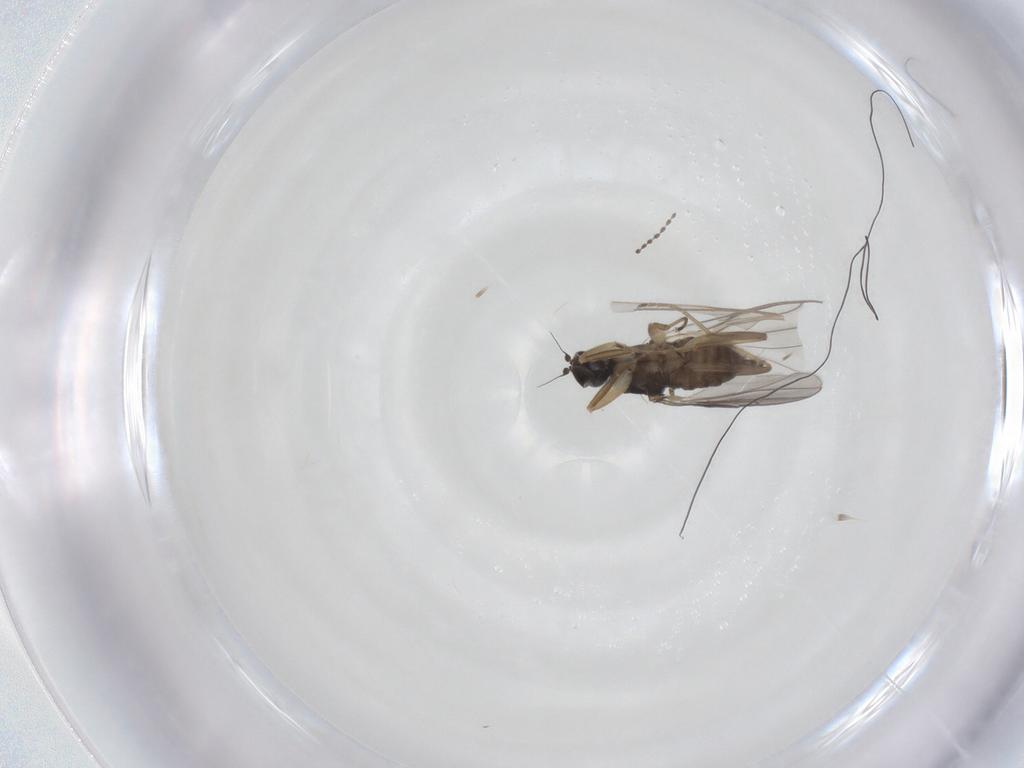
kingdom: Animalia
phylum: Arthropoda
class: Insecta
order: Diptera
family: Hybotidae
